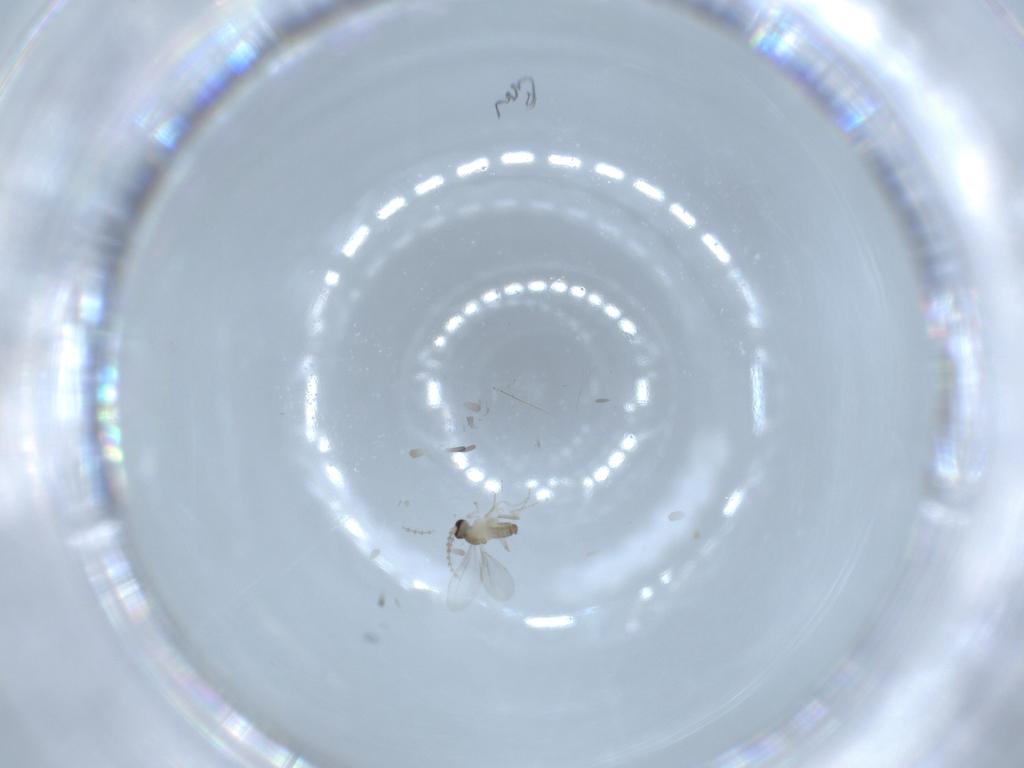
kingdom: Animalia
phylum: Arthropoda
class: Insecta
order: Diptera
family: Cecidomyiidae
